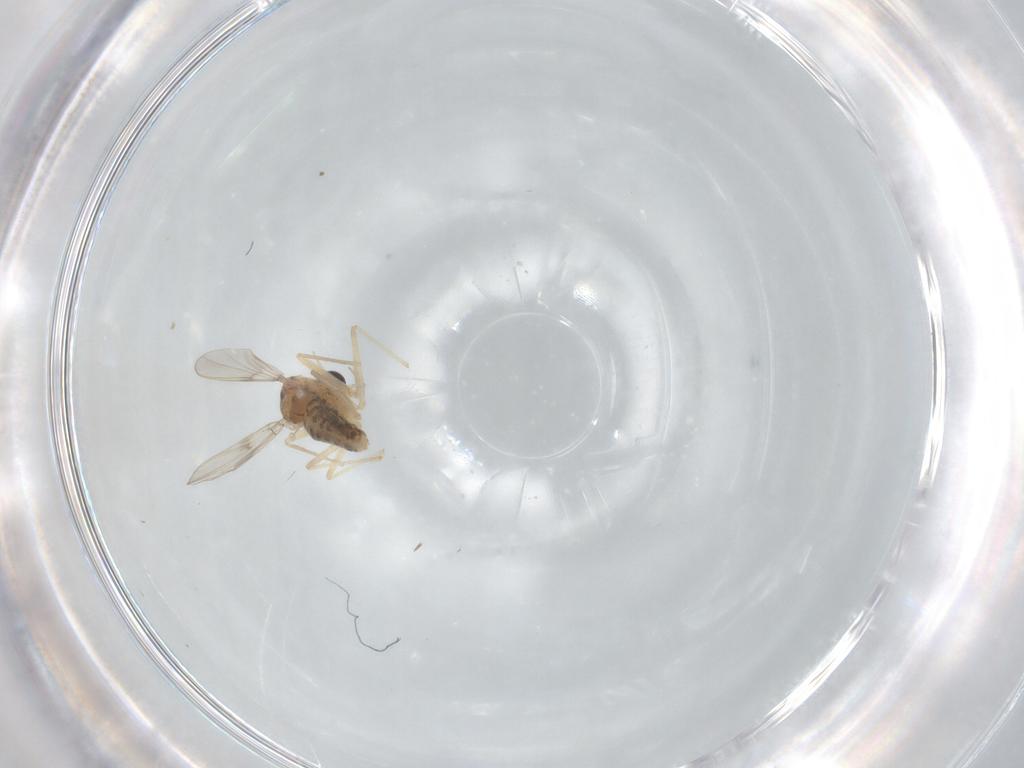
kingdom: Animalia
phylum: Arthropoda
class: Insecta
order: Diptera
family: Chironomidae
